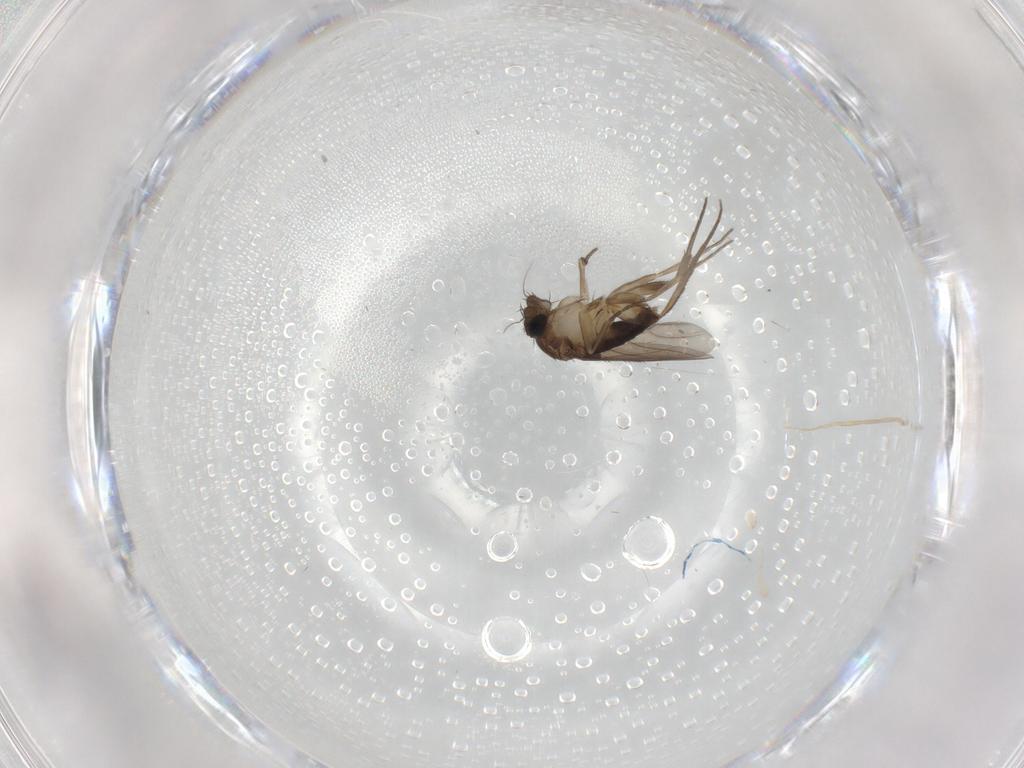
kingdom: Animalia
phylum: Arthropoda
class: Insecta
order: Diptera
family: Phoridae
